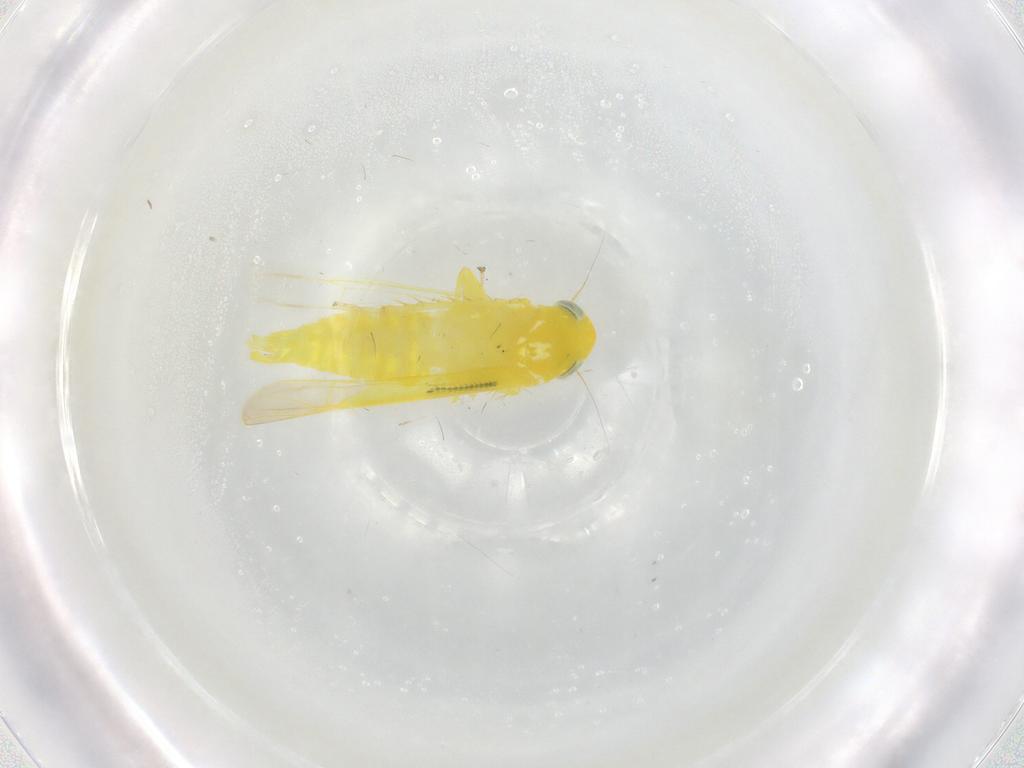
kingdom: Animalia
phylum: Arthropoda
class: Insecta
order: Hemiptera
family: Cicadellidae
